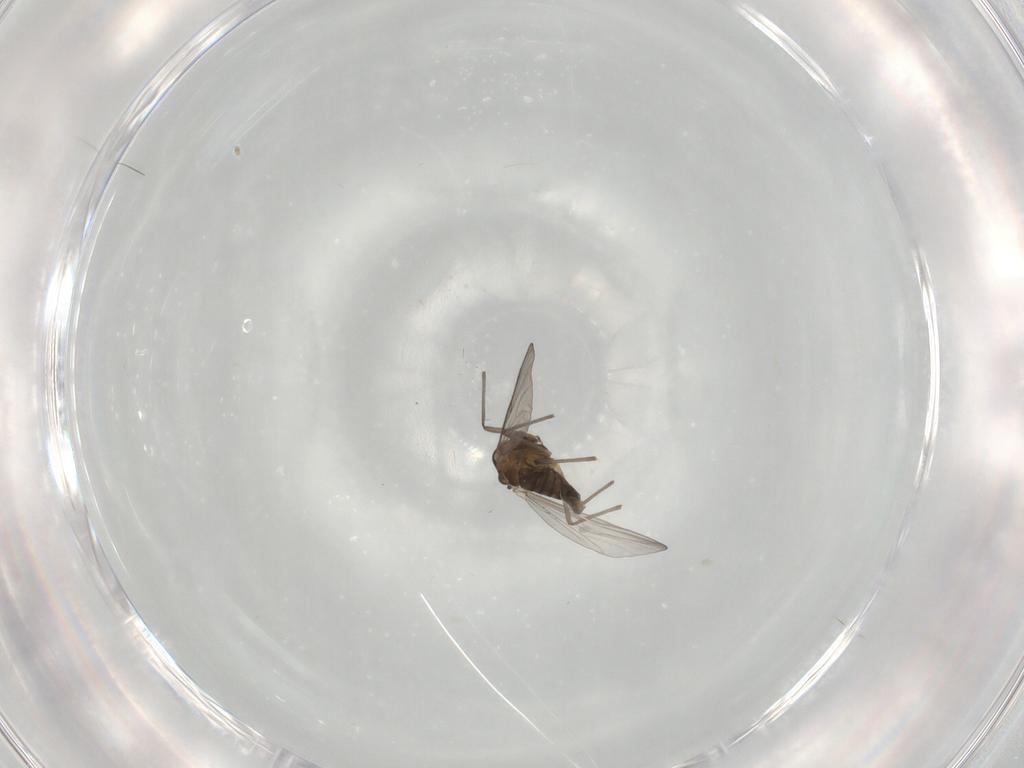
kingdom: Animalia
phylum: Arthropoda
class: Insecta
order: Diptera
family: Chironomidae
